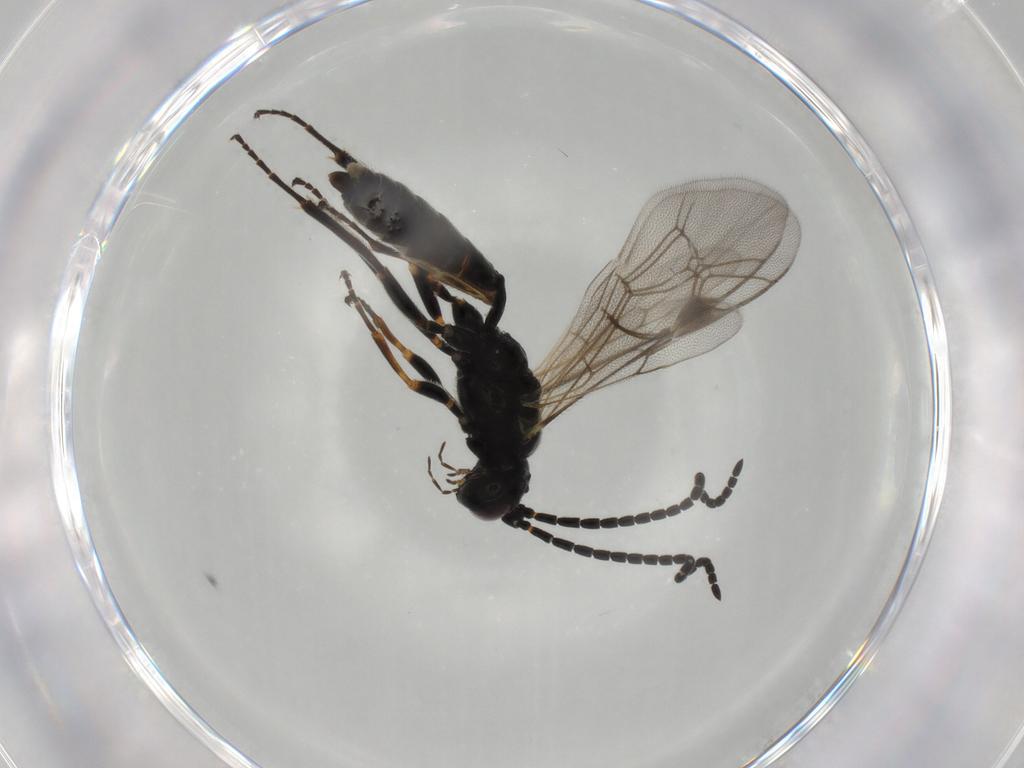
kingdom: Animalia
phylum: Arthropoda
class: Insecta
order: Hymenoptera
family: Ichneumonidae
